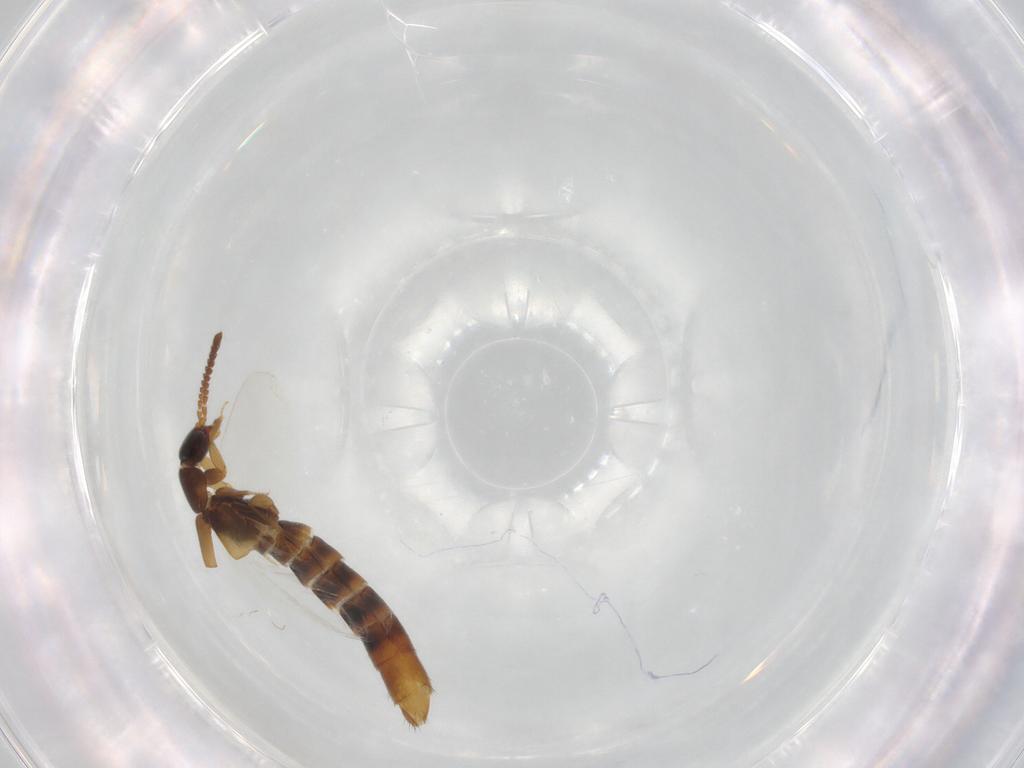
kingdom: Animalia
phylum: Arthropoda
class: Insecta
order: Coleoptera
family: Staphylinidae
